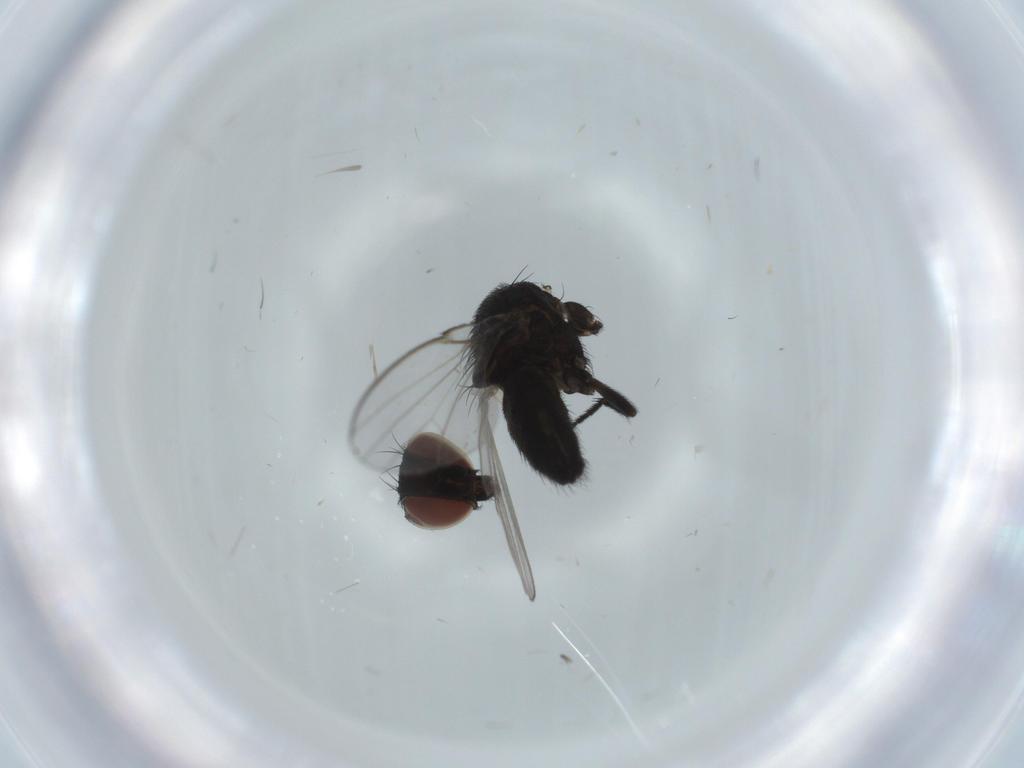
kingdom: Animalia
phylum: Arthropoda
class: Insecta
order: Diptera
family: Milichiidae
